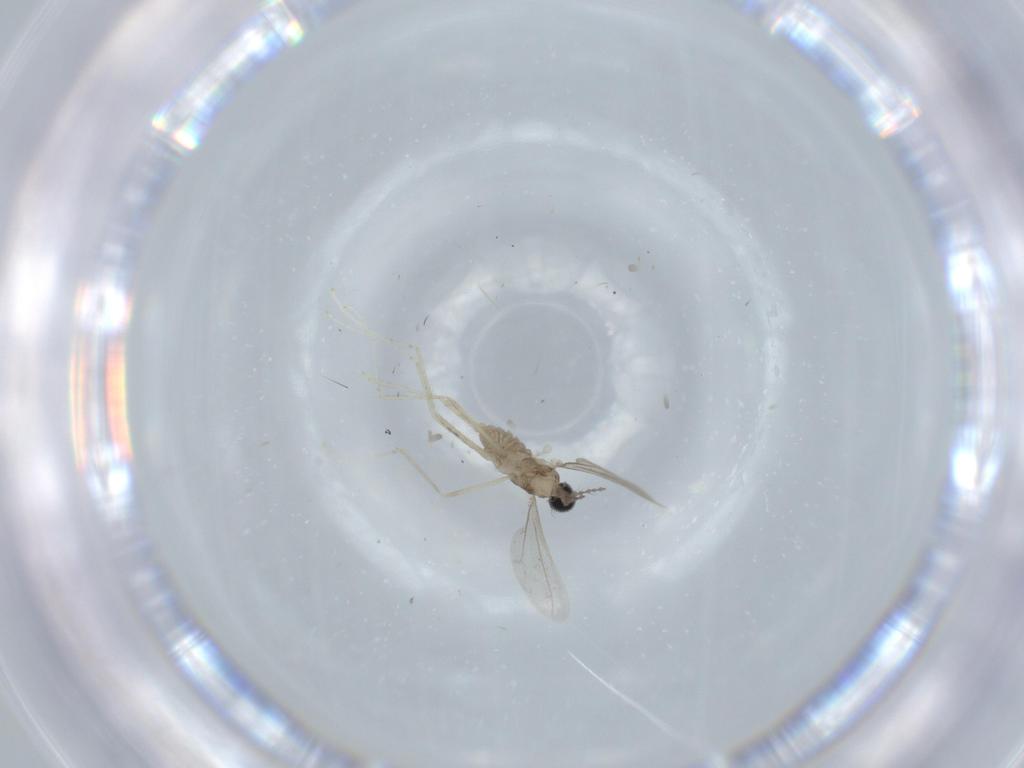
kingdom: Animalia
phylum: Arthropoda
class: Insecta
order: Diptera
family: Cecidomyiidae
